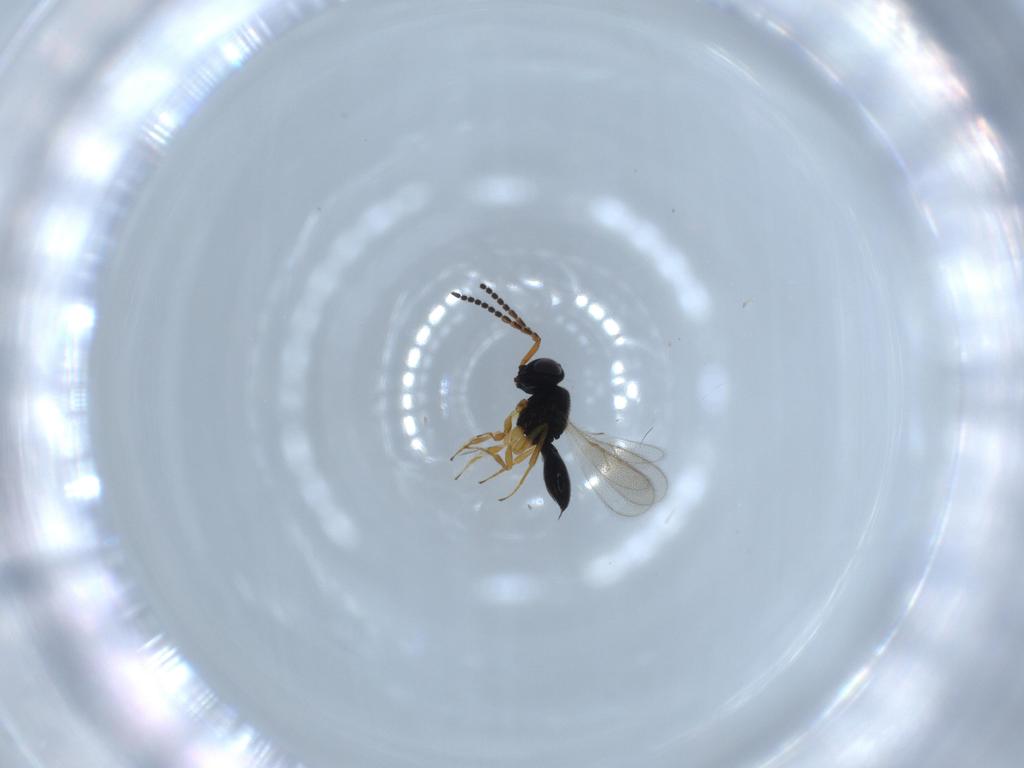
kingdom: Animalia
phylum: Arthropoda
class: Insecta
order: Hymenoptera
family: Scelionidae
